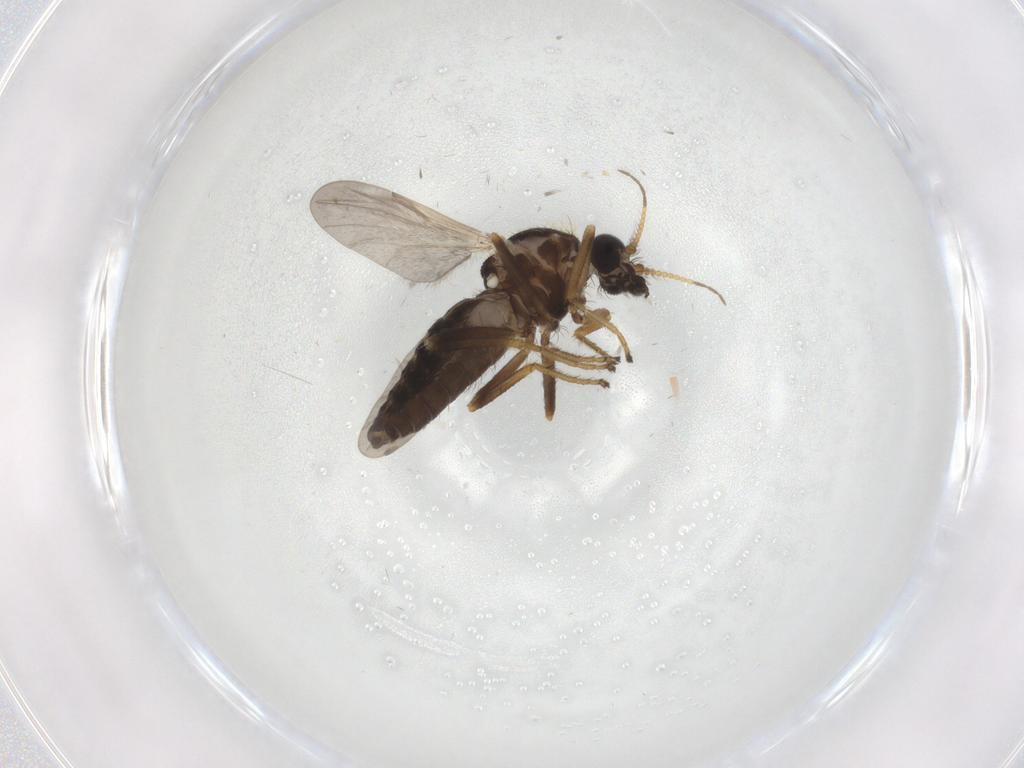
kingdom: Animalia
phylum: Arthropoda
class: Insecta
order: Diptera
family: Ceratopogonidae
